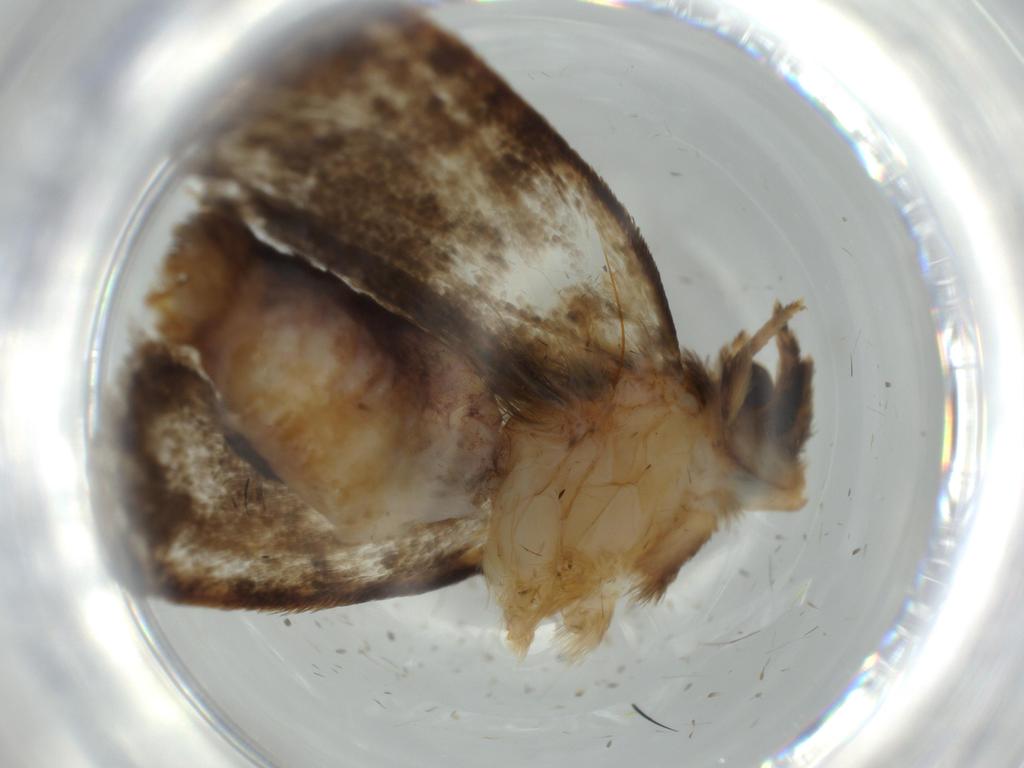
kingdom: Animalia
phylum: Arthropoda
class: Insecta
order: Lepidoptera
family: Tineidae
